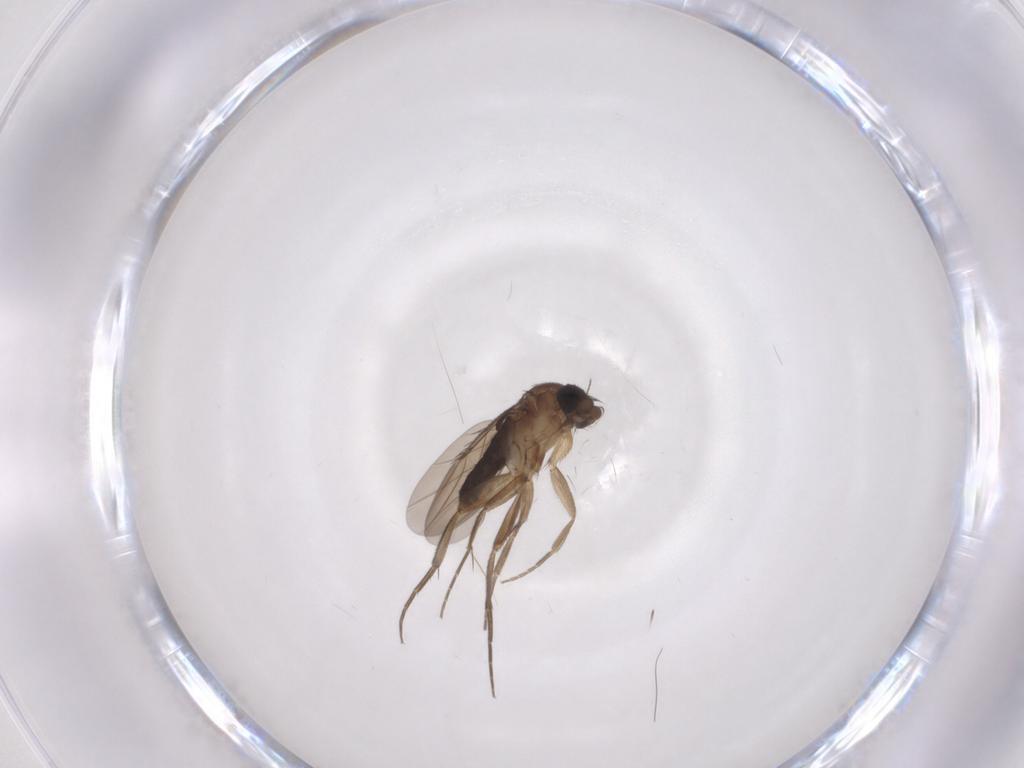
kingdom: Animalia
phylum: Arthropoda
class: Insecta
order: Hymenoptera
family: Scelionidae
